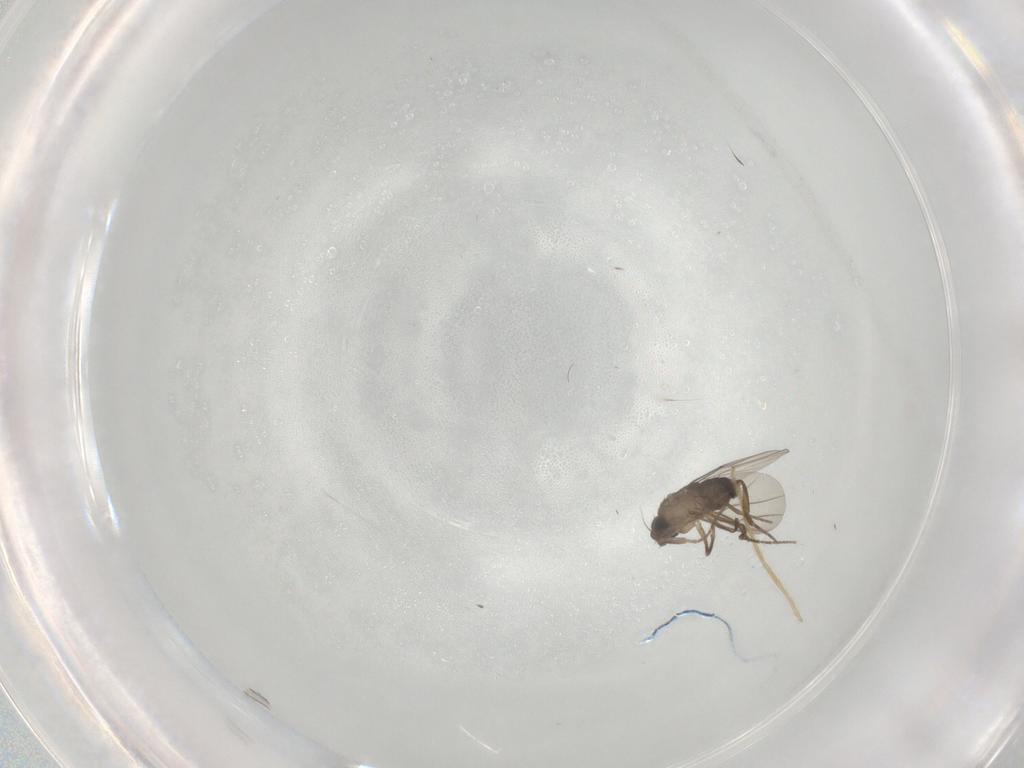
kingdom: Animalia
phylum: Arthropoda
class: Insecta
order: Diptera
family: Phoridae
